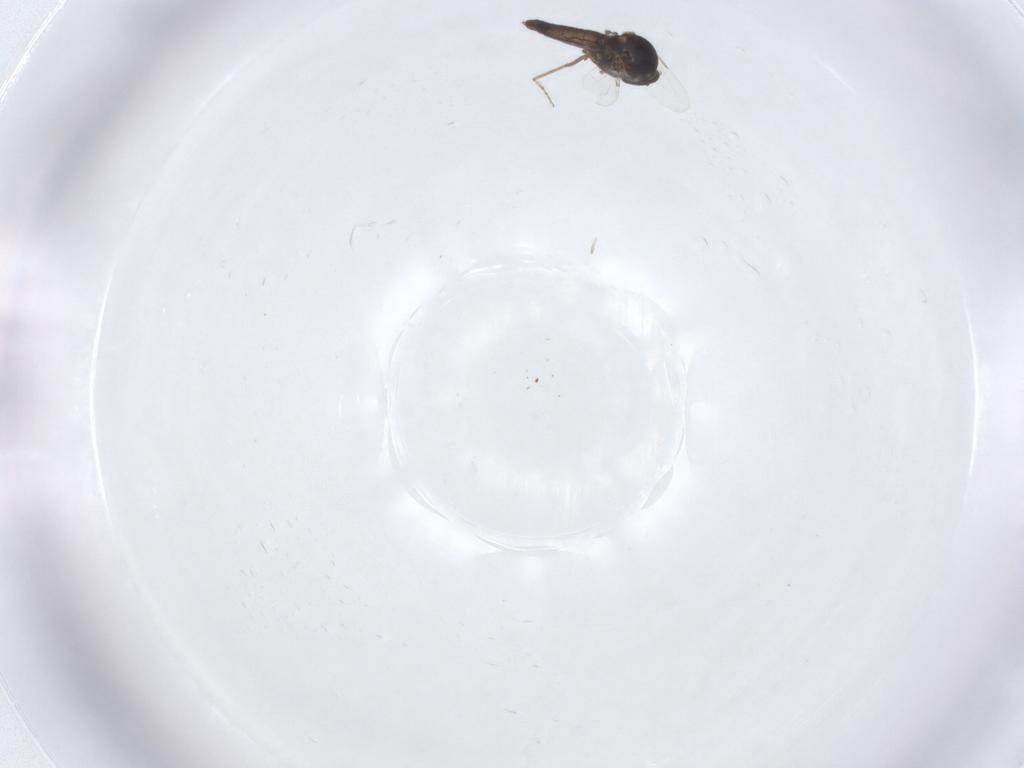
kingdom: Animalia
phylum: Arthropoda
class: Insecta
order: Diptera
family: Ceratopogonidae
